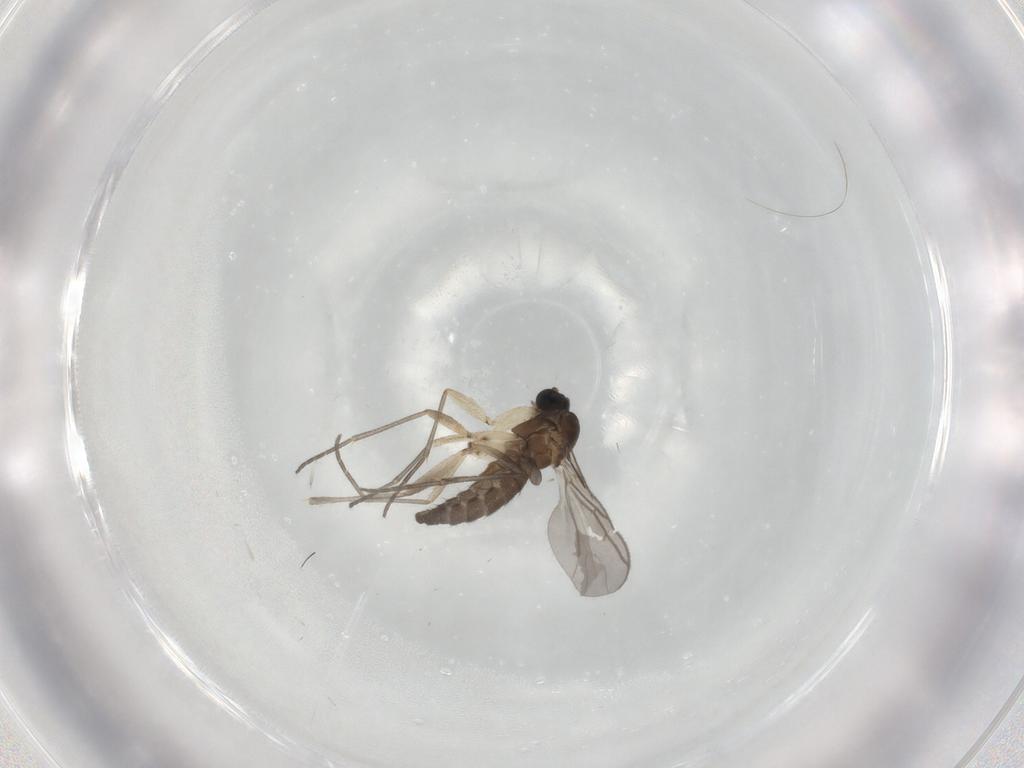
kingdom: Animalia
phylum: Arthropoda
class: Insecta
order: Diptera
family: Sciaridae
